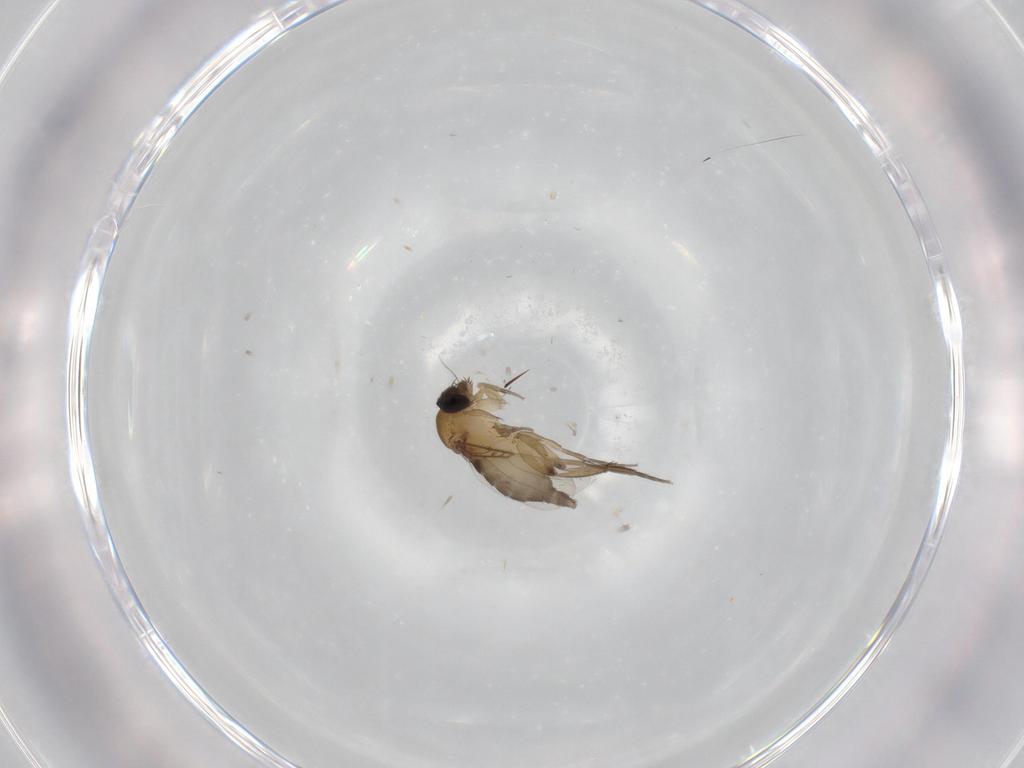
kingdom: Animalia
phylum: Arthropoda
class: Insecta
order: Diptera
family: Phoridae
